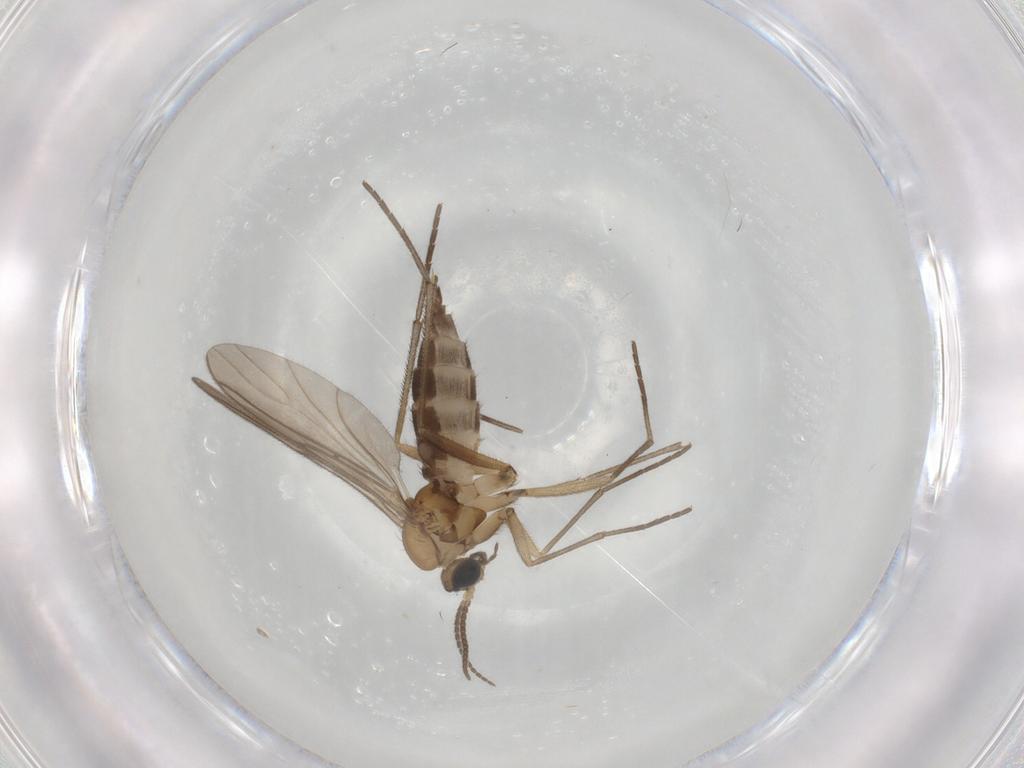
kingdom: Animalia
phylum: Arthropoda
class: Insecta
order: Diptera
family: Sciaridae
